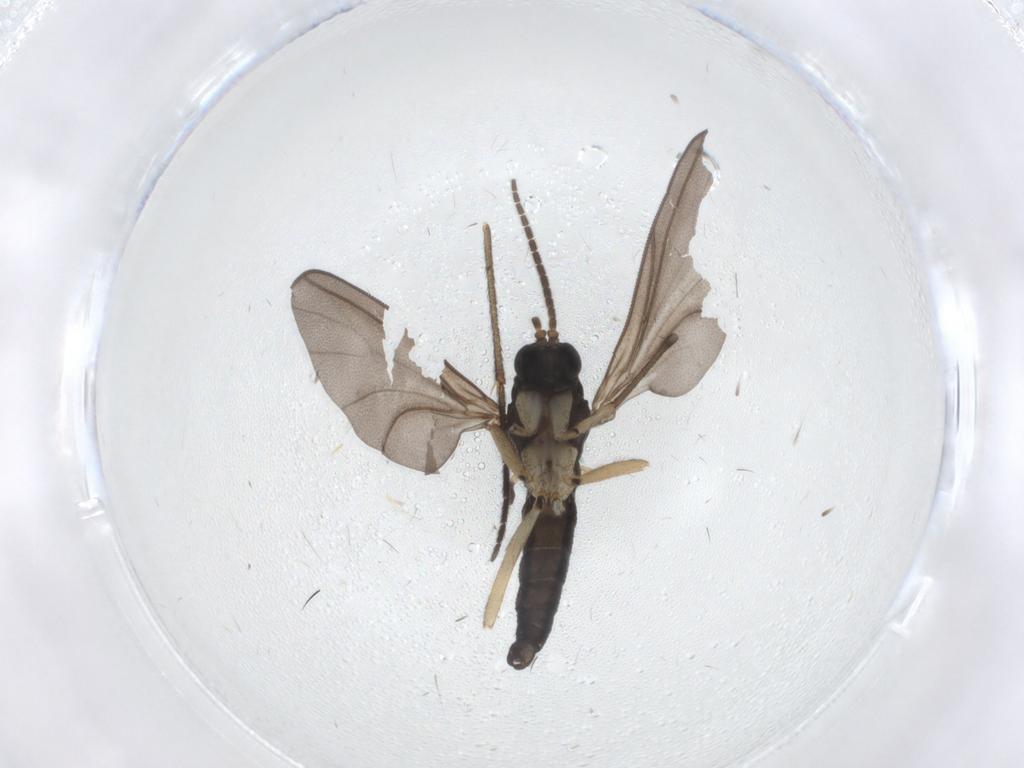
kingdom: Animalia
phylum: Arthropoda
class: Insecta
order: Diptera
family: Sciaridae
